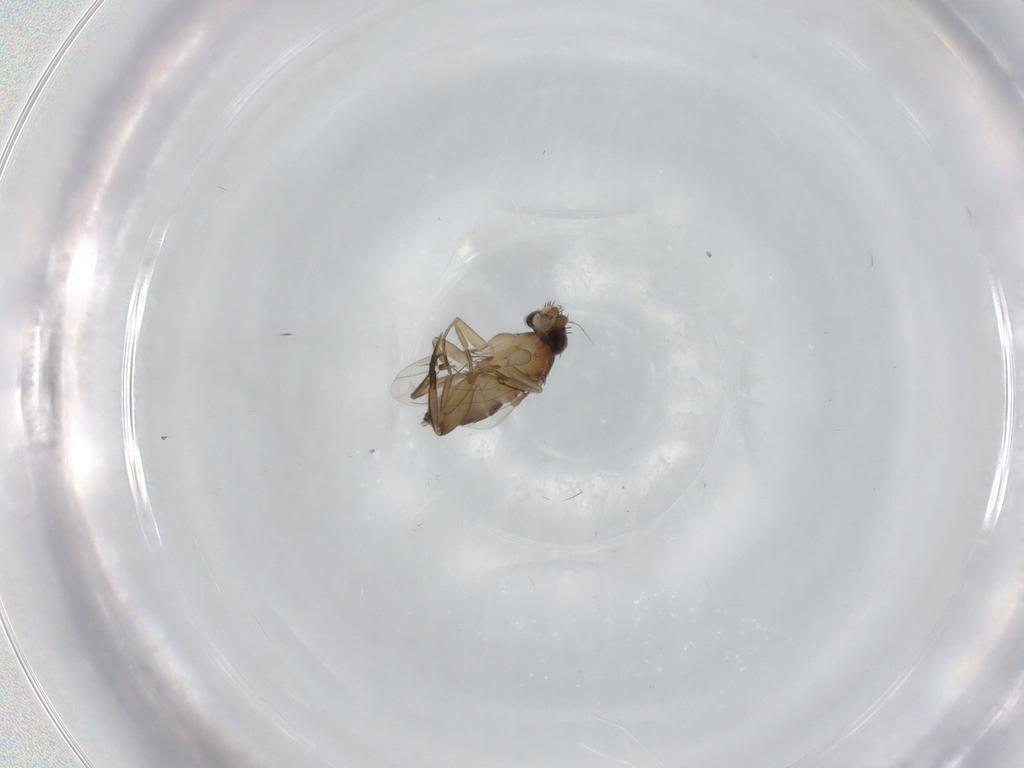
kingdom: Animalia
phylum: Arthropoda
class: Insecta
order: Diptera
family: Phoridae
